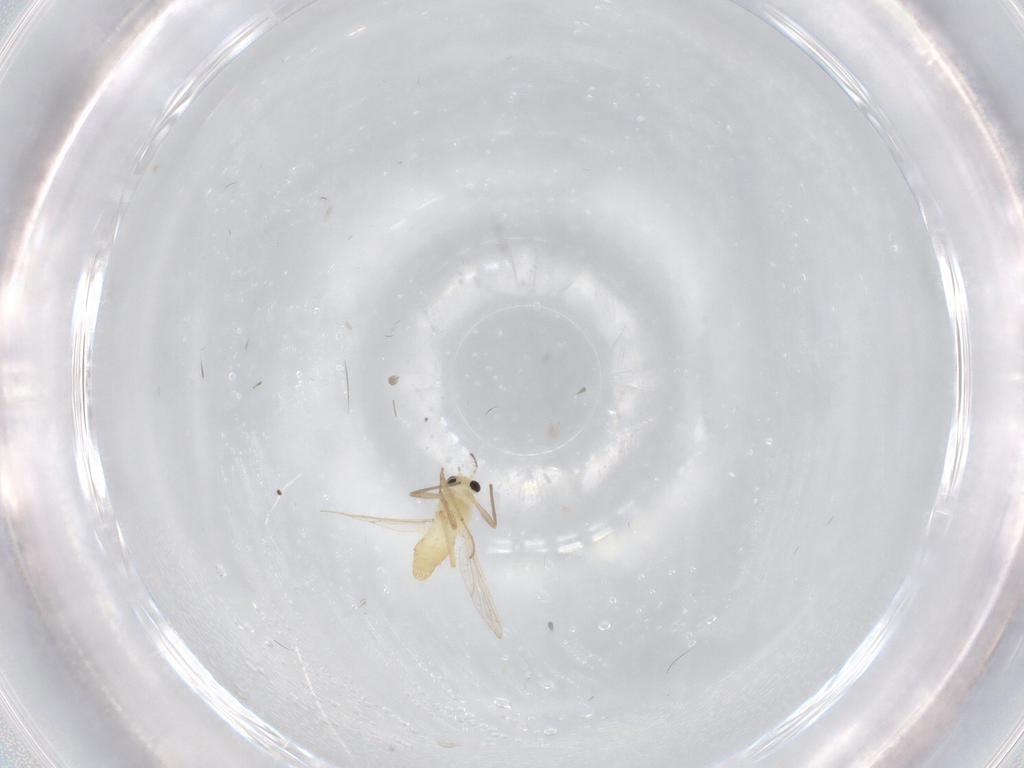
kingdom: Animalia
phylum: Arthropoda
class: Insecta
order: Diptera
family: Chironomidae
